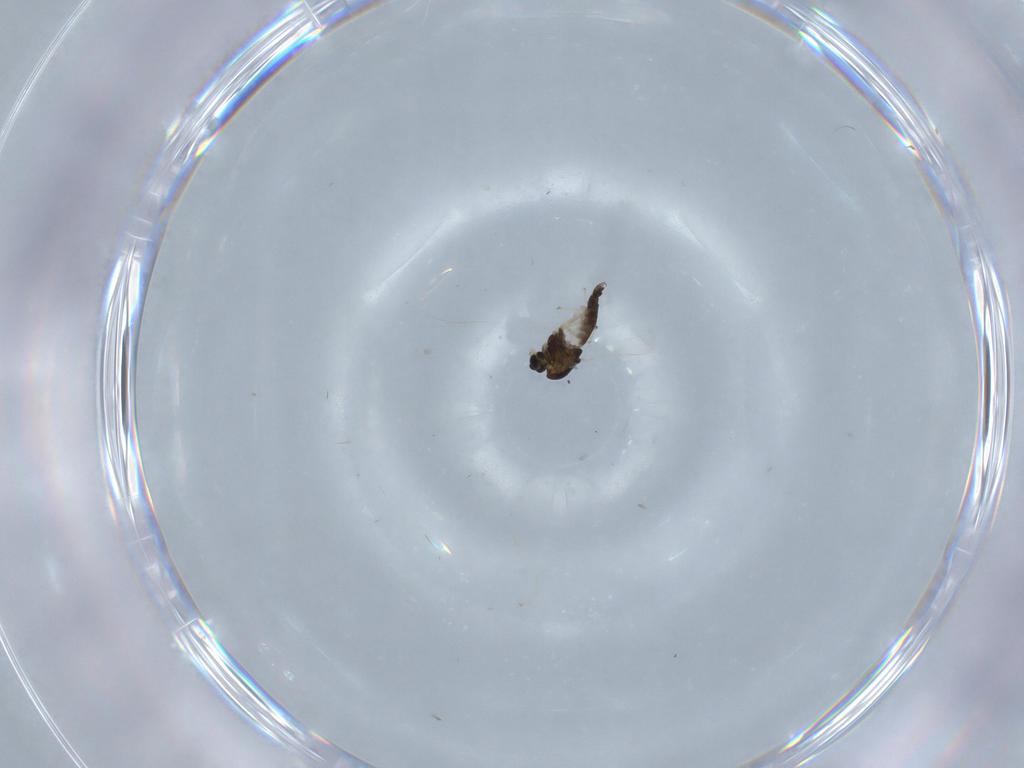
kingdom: Animalia
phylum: Arthropoda
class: Insecta
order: Diptera
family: Chironomidae
